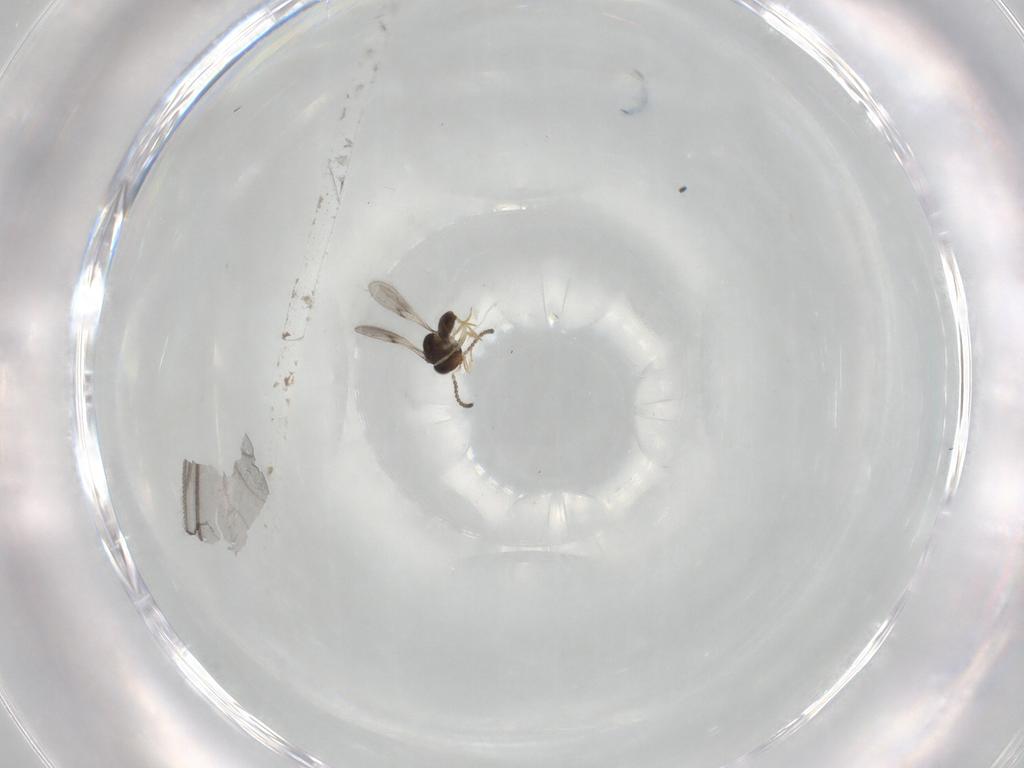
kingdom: Animalia
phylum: Arthropoda
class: Insecta
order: Hymenoptera
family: Scelionidae
